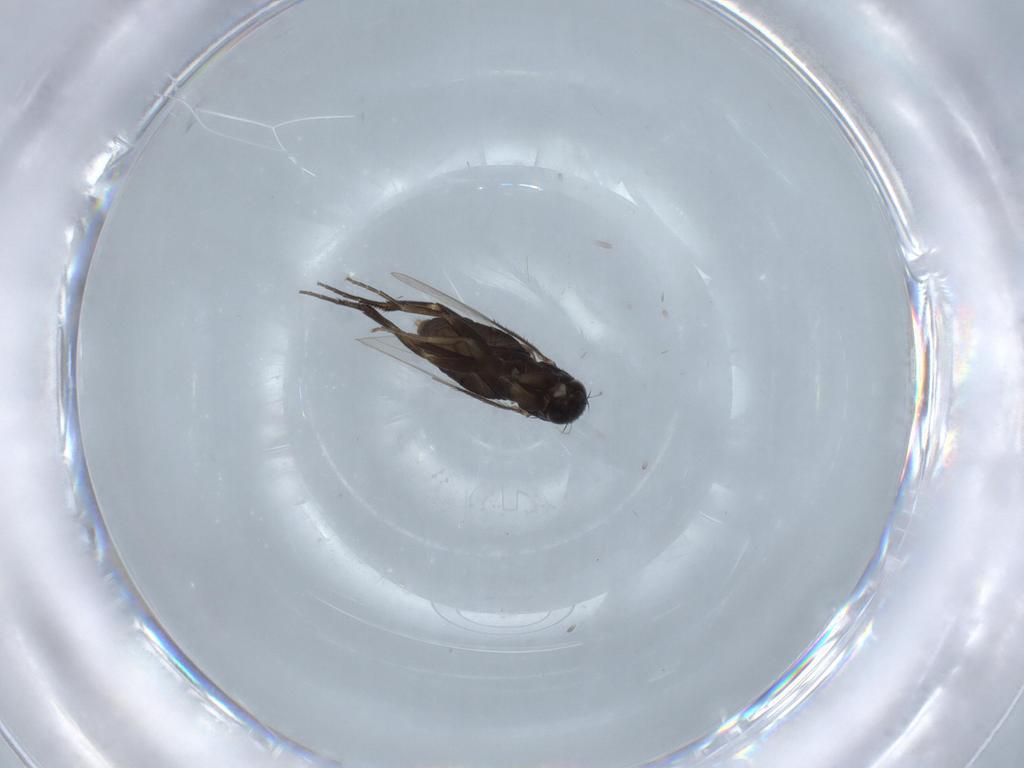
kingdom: Animalia
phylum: Arthropoda
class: Insecta
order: Diptera
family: Phoridae
